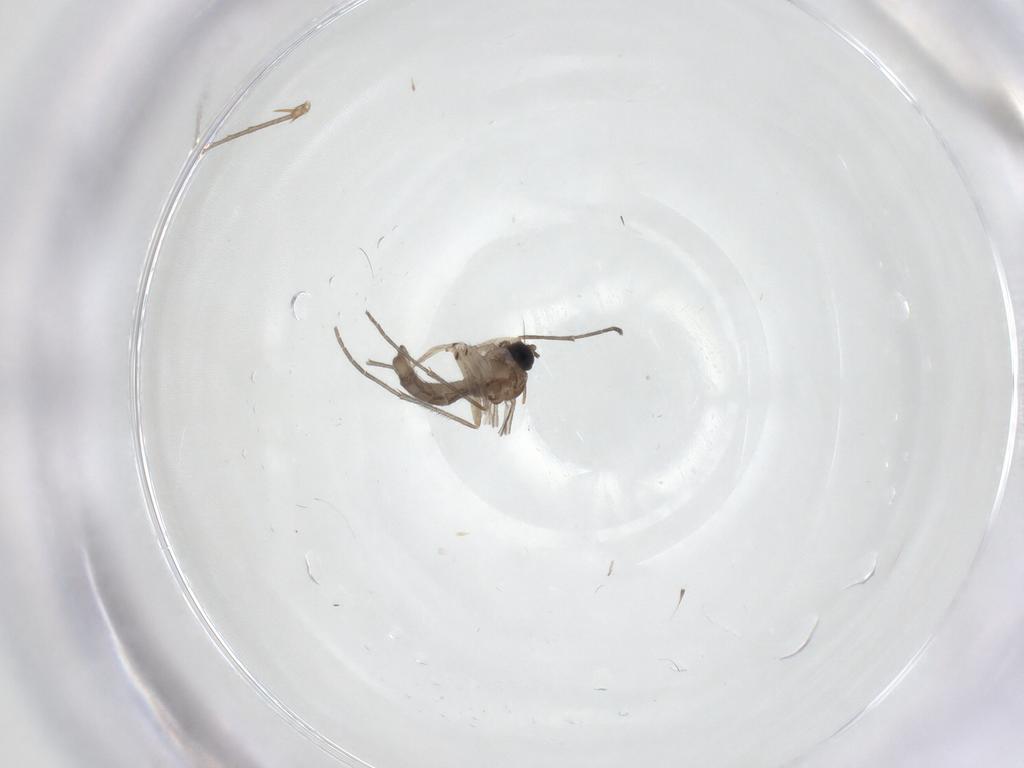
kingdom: Animalia
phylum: Arthropoda
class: Insecta
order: Diptera
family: Sciaridae
